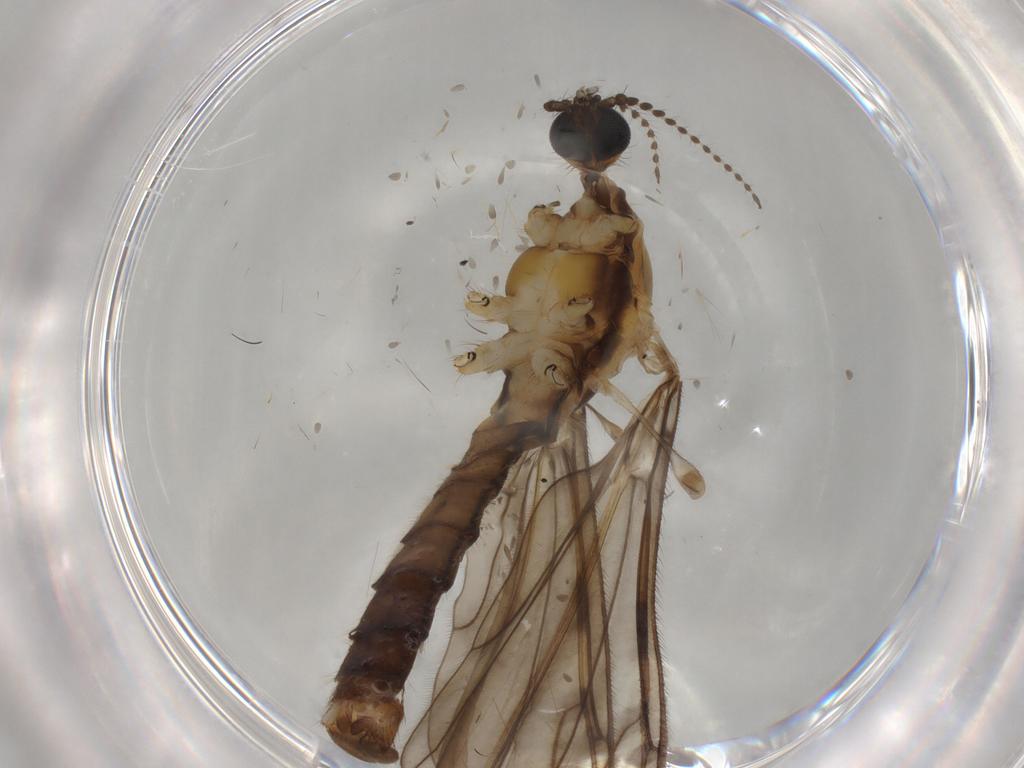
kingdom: Animalia
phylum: Arthropoda
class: Insecta
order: Diptera
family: Limoniidae
